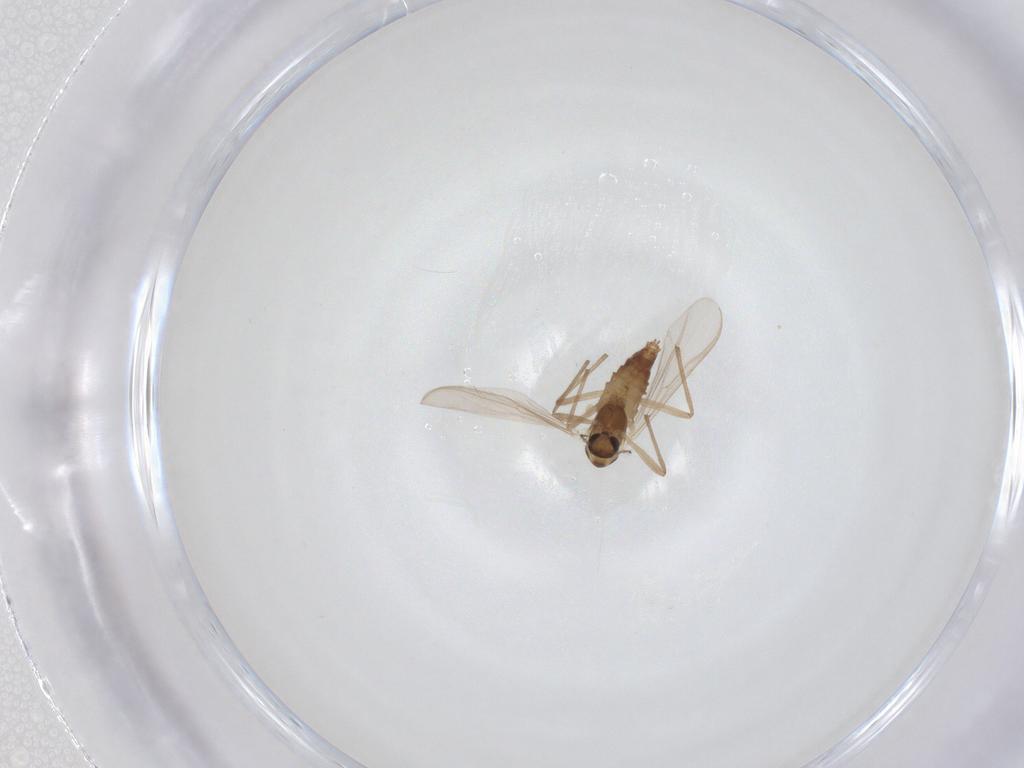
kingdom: Animalia
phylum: Arthropoda
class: Insecta
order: Diptera
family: Chironomidae
